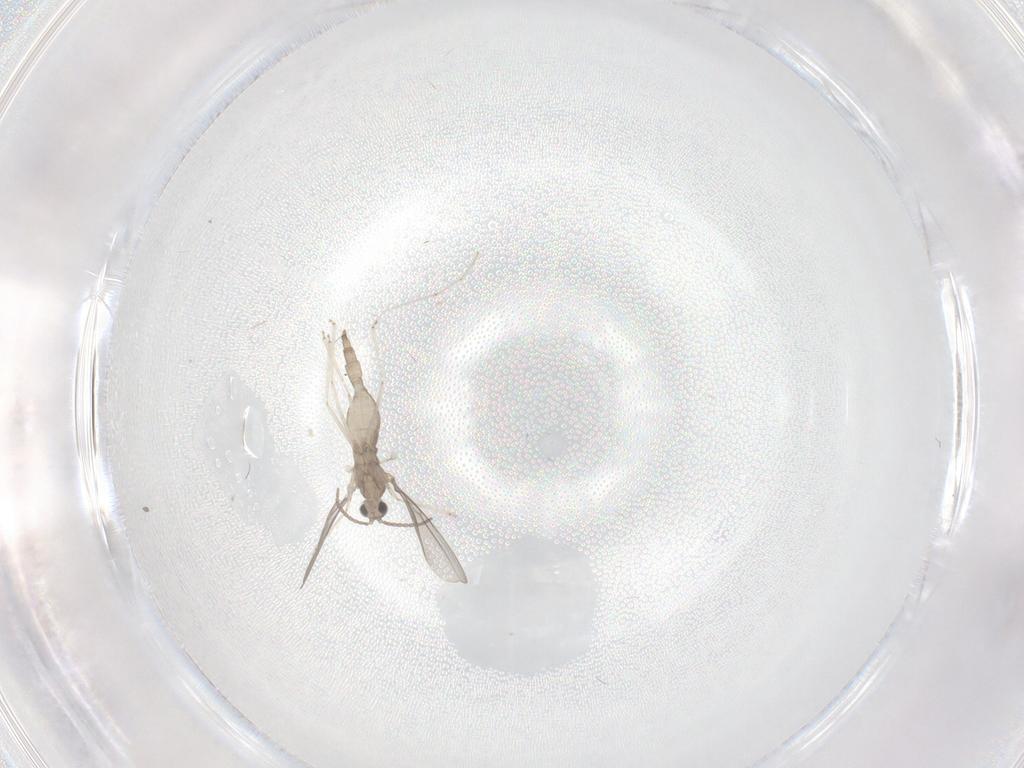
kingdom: Animalia
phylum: Arthropoda
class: Insecta
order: Diptera
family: Cecidomyiidae
